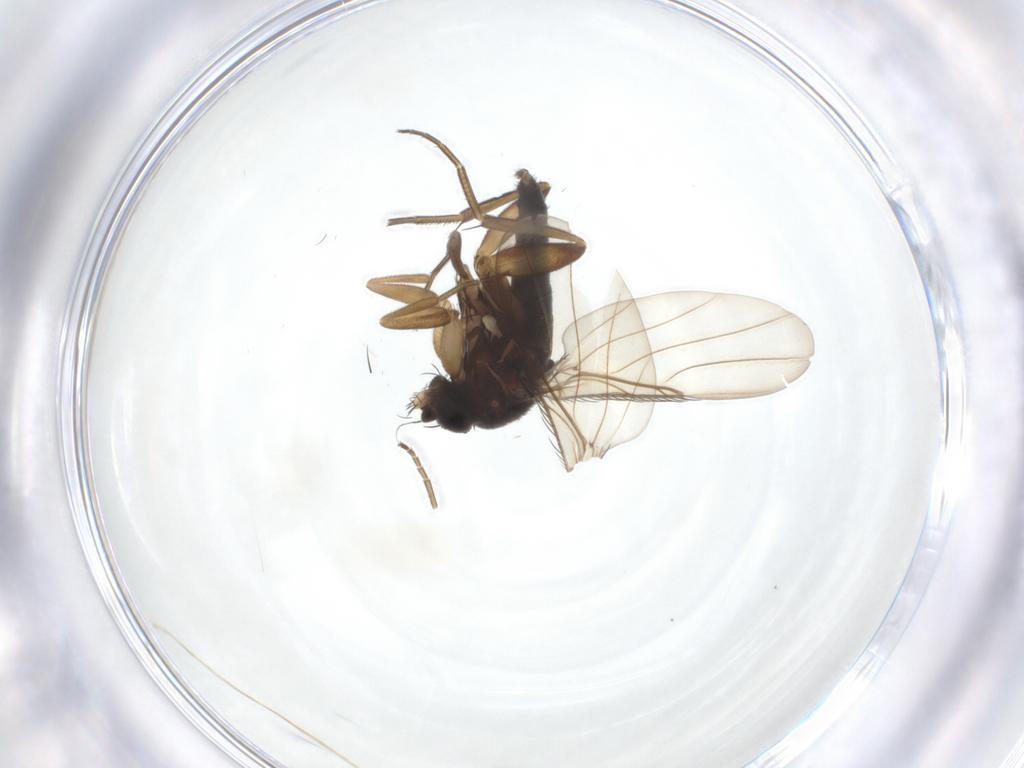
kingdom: Animalia
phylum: Arthropoda
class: Insecta
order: Diptera
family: Phoridae
